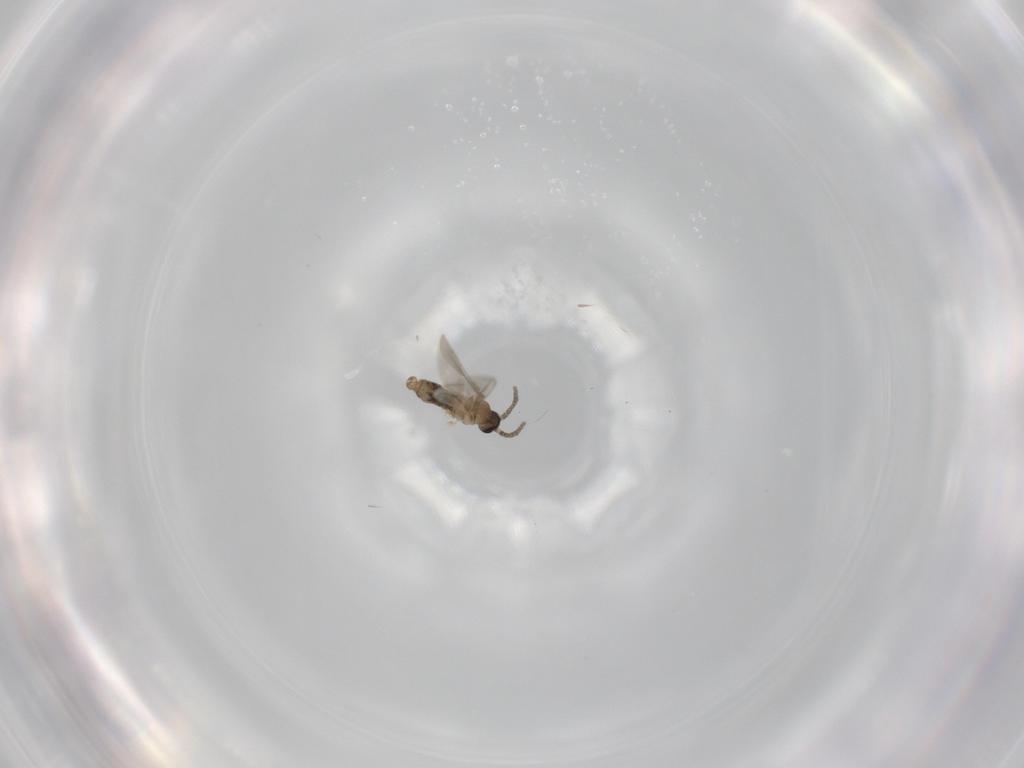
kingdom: Animalia
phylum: Arthropoda
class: Insecta
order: Diptera
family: Cecidomyiidae
